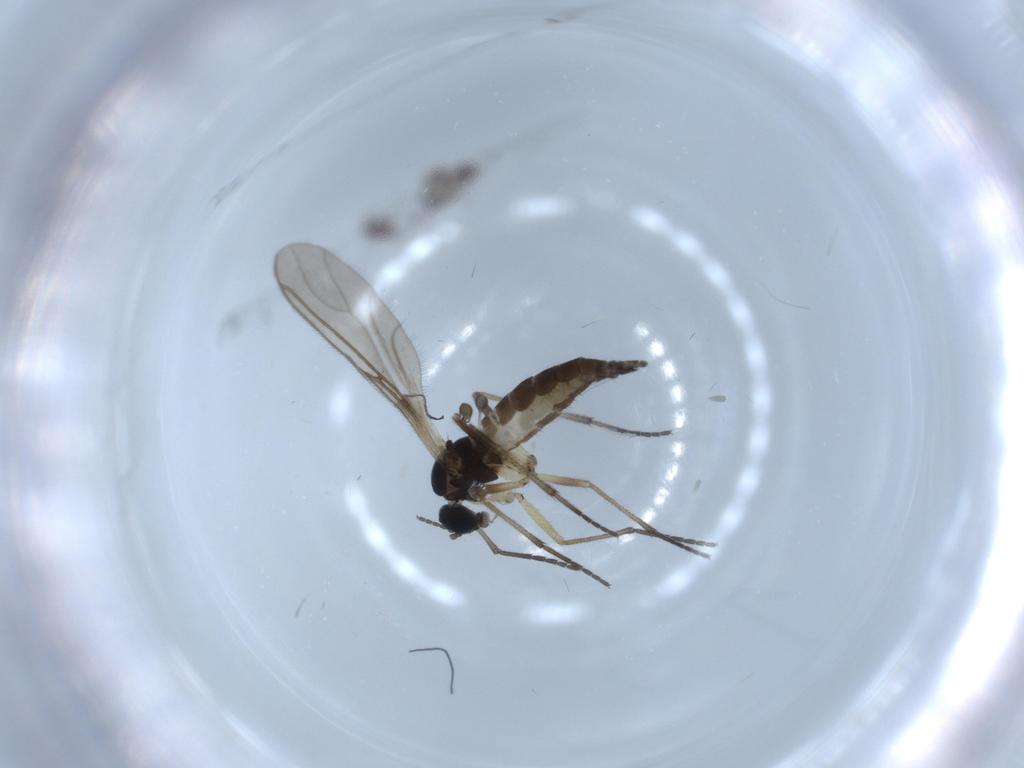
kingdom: Animalia
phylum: Arthropoda
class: Insecta
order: Diptera
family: Sciaridae
